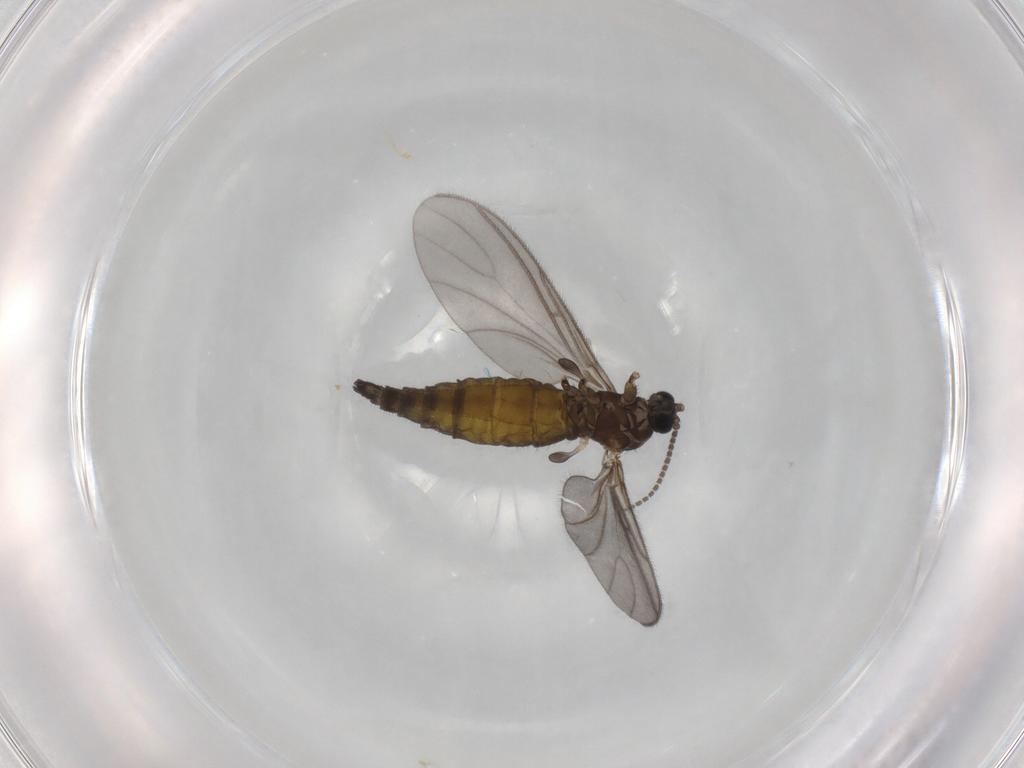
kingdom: Animalia
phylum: Arthropoda
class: Insecta
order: Diptera
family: Sciaridae
